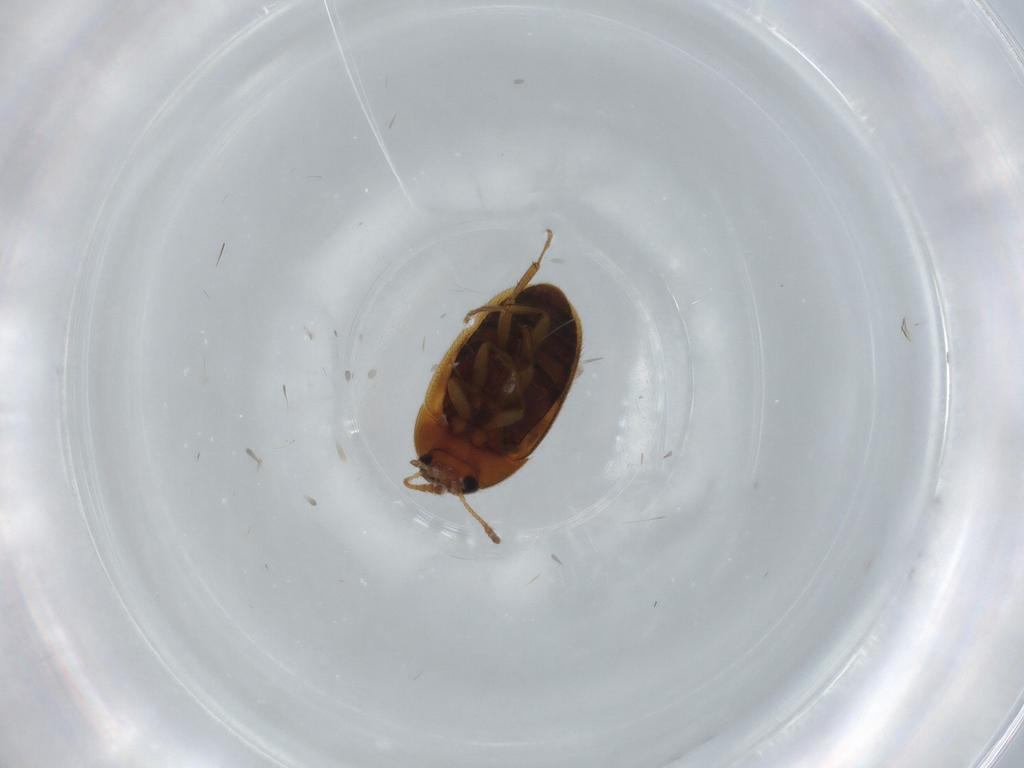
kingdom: Animalia
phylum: Arthropoda
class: Insecta
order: Coleoptera
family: Mycetophagidae
